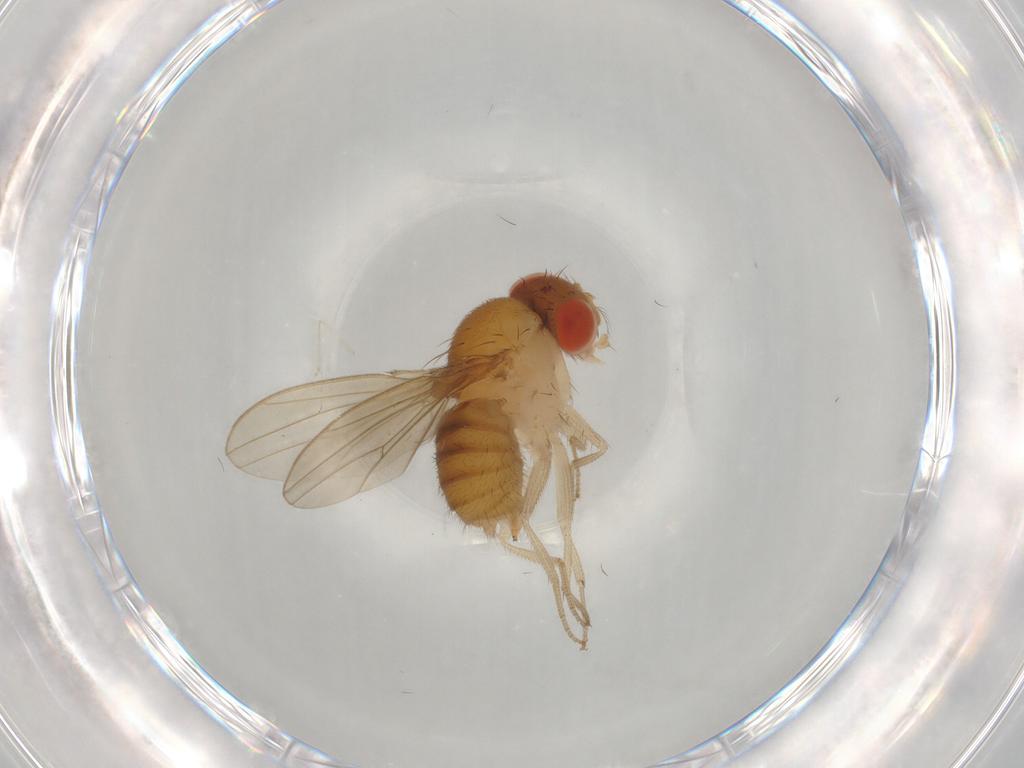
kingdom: Animalia
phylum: Arthropoda
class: Insecta
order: Diptera
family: Drosophilidae
